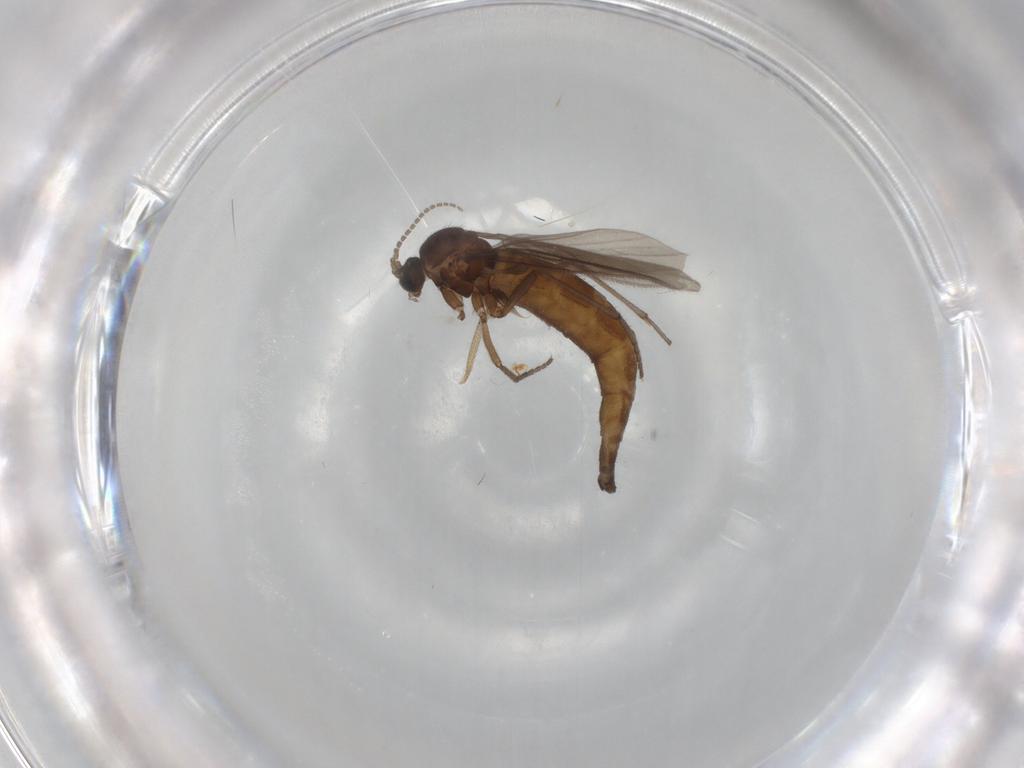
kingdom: Animalia
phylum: Arthropoda
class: Insecta
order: Diptera
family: Sciaridae
